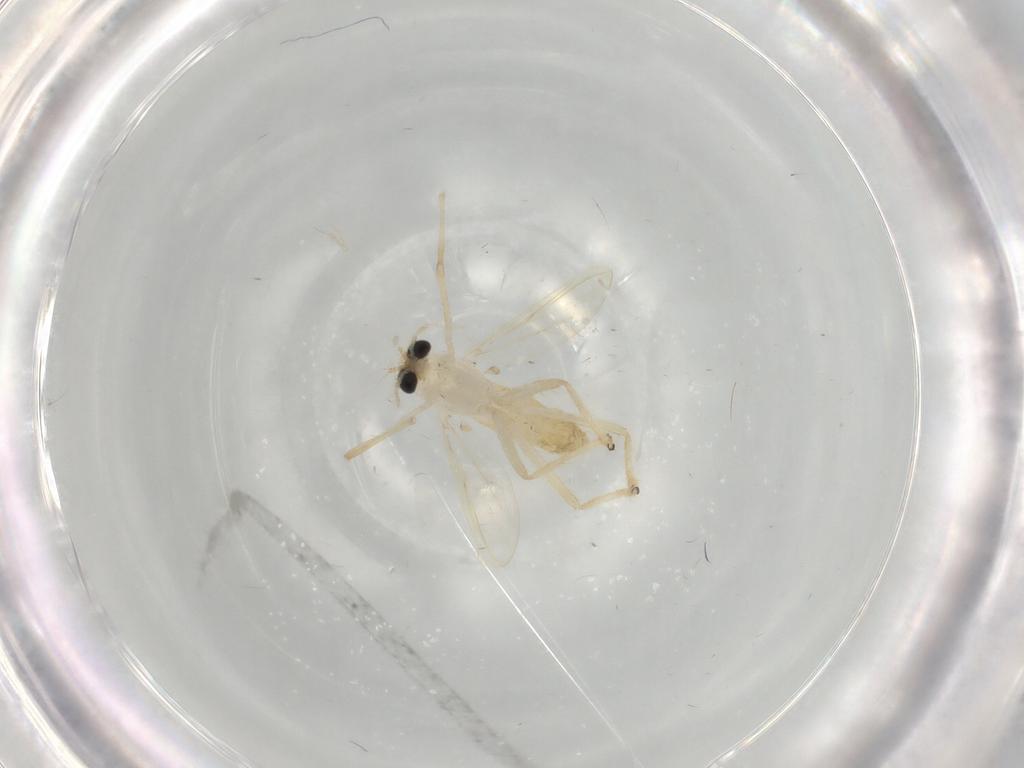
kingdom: Animalia
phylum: Arthropoda
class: Insecta
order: Diptera
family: Chironomidae
